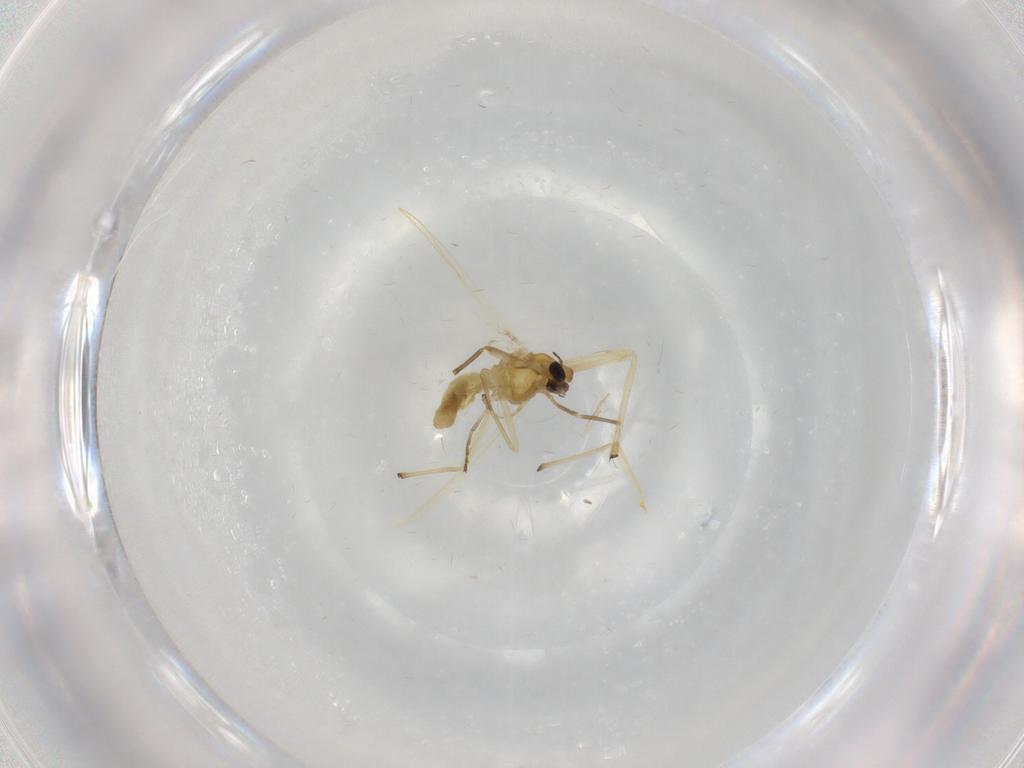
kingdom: Animalia
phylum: Arthropoda
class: Insecta
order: Diptera
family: Chironomidae
